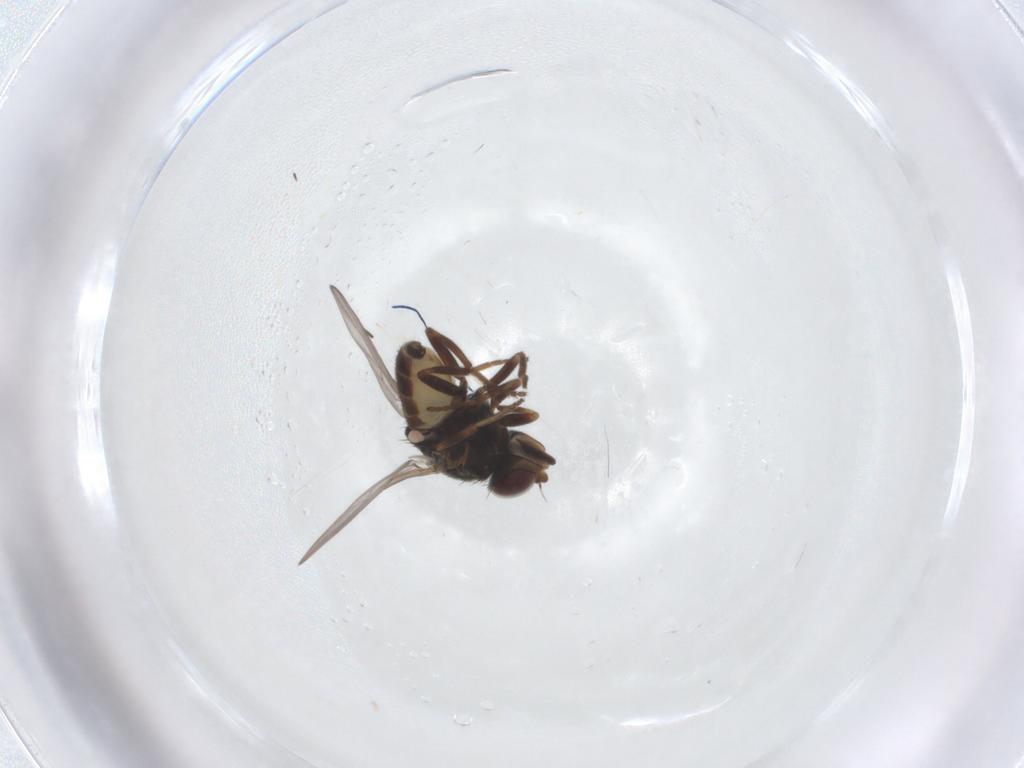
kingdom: Animalia
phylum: Arthropoda
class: Insecta
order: Diptera
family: Chloropidae
